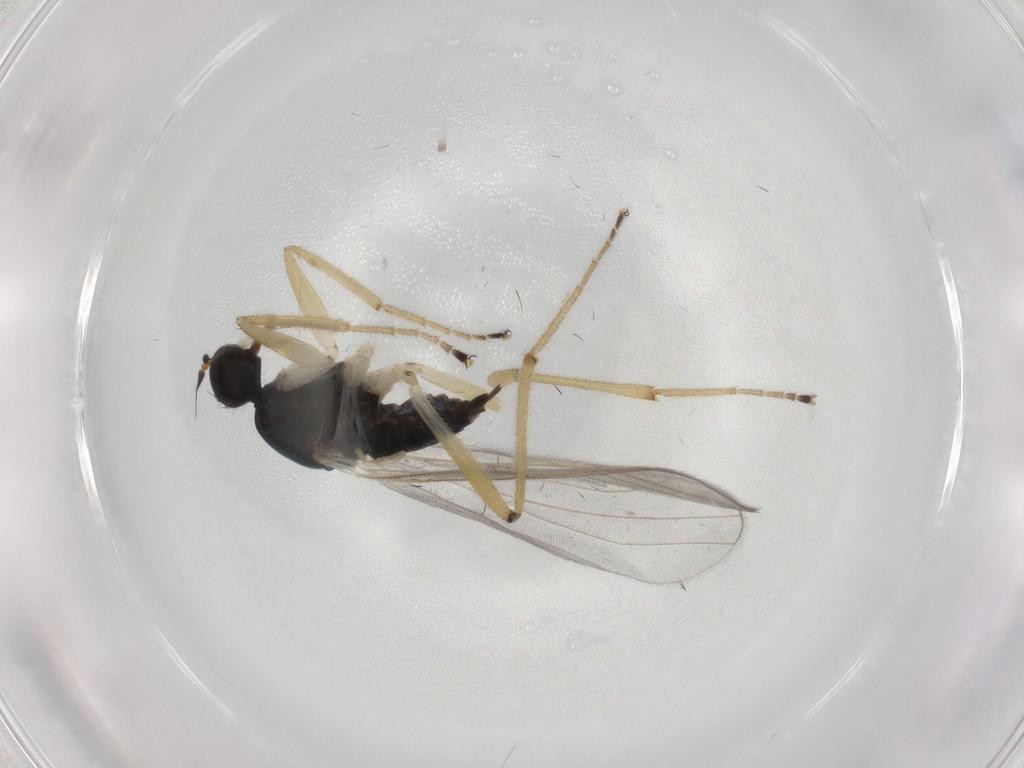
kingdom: Animalia
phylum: Arthropoda
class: Insecta
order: Diptera
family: Hybotidae
